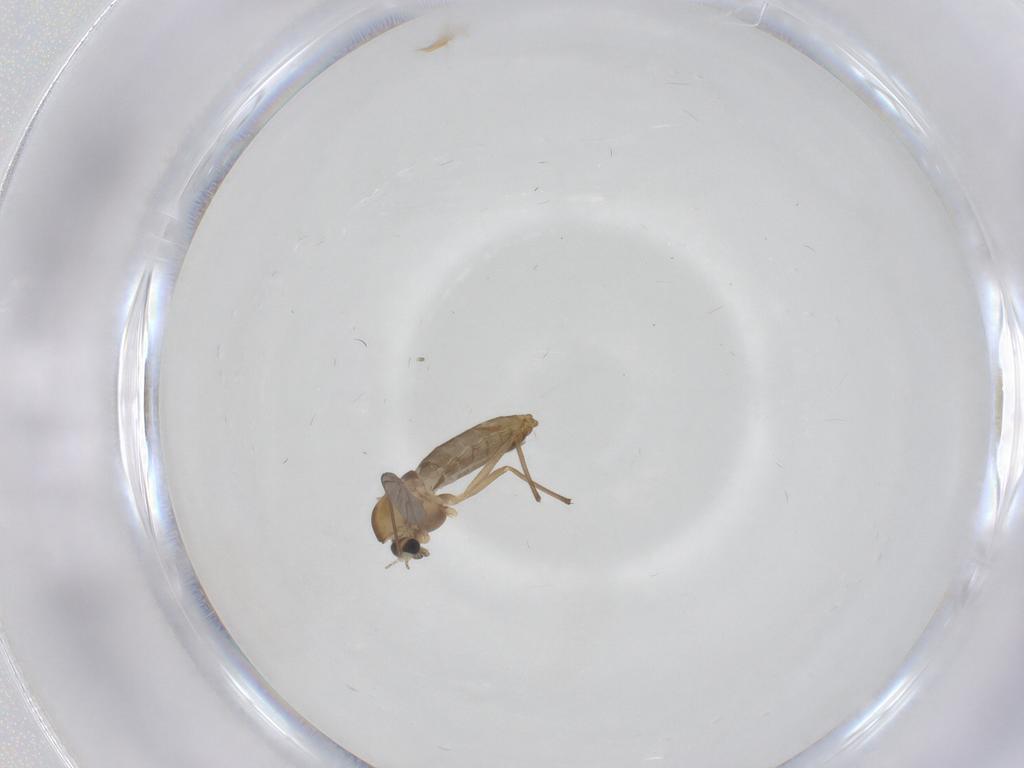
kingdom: Animalia
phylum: Arthropoda
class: Insecta
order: Diptera
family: Chironomidae
